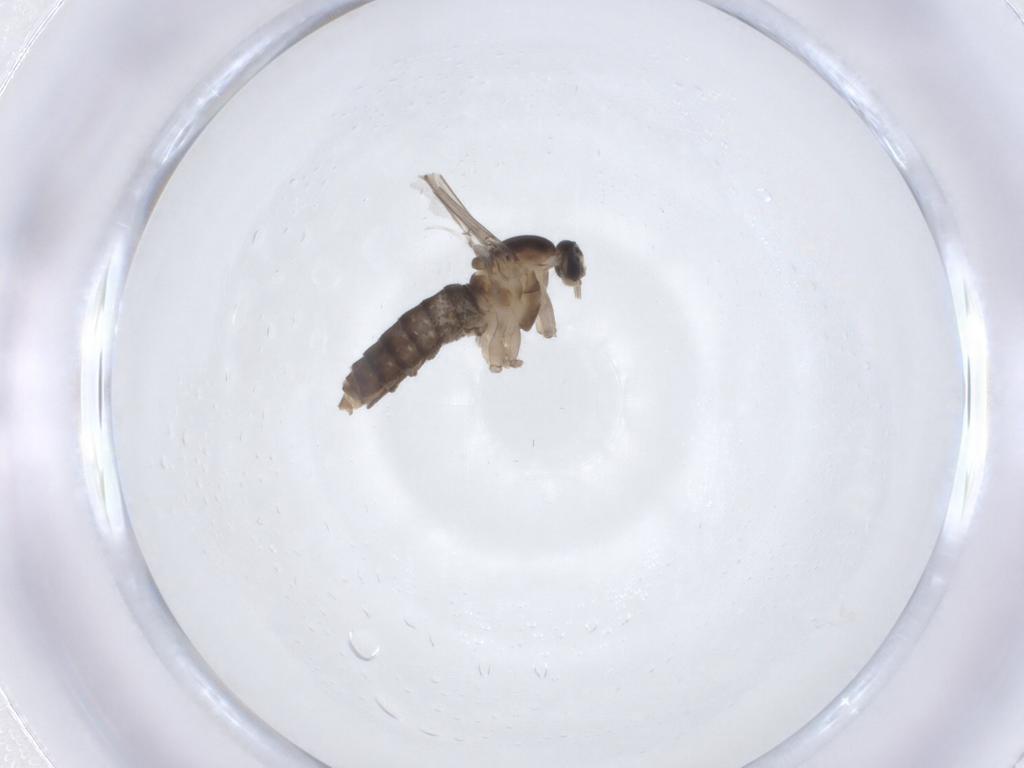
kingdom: Animalia
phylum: Arthropoda
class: Insecta
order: Diptera
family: Cecidomyiidae
